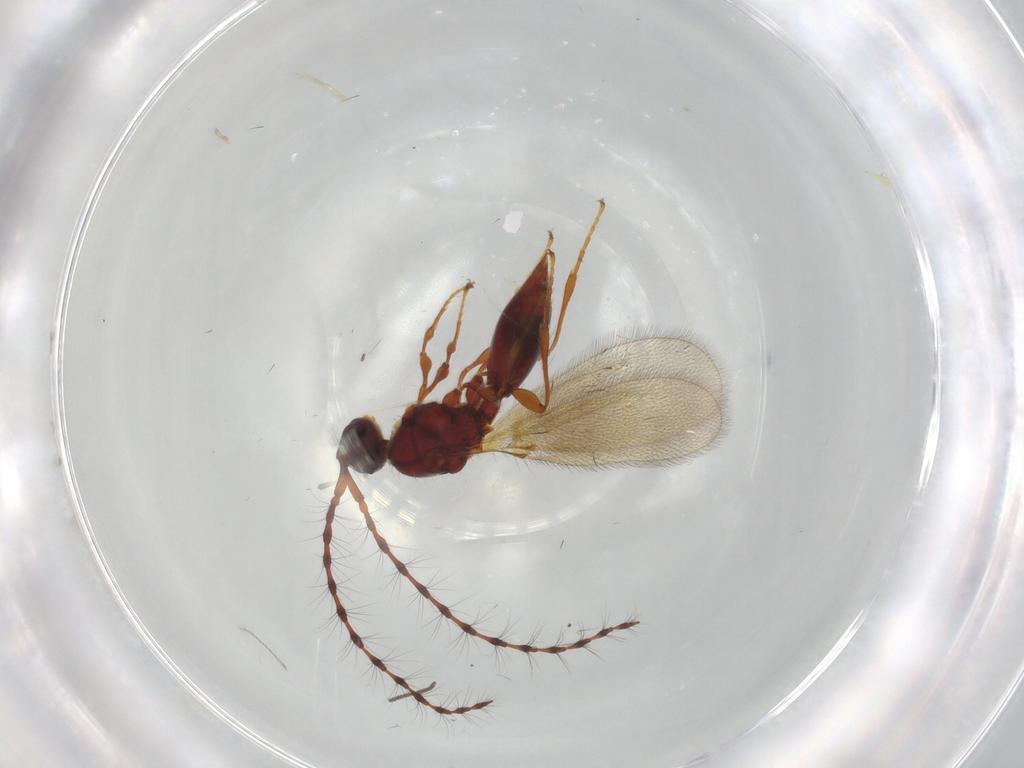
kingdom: Animalia
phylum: Arthropoda
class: Insecta
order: Hymenoptera
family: Diapriidae
